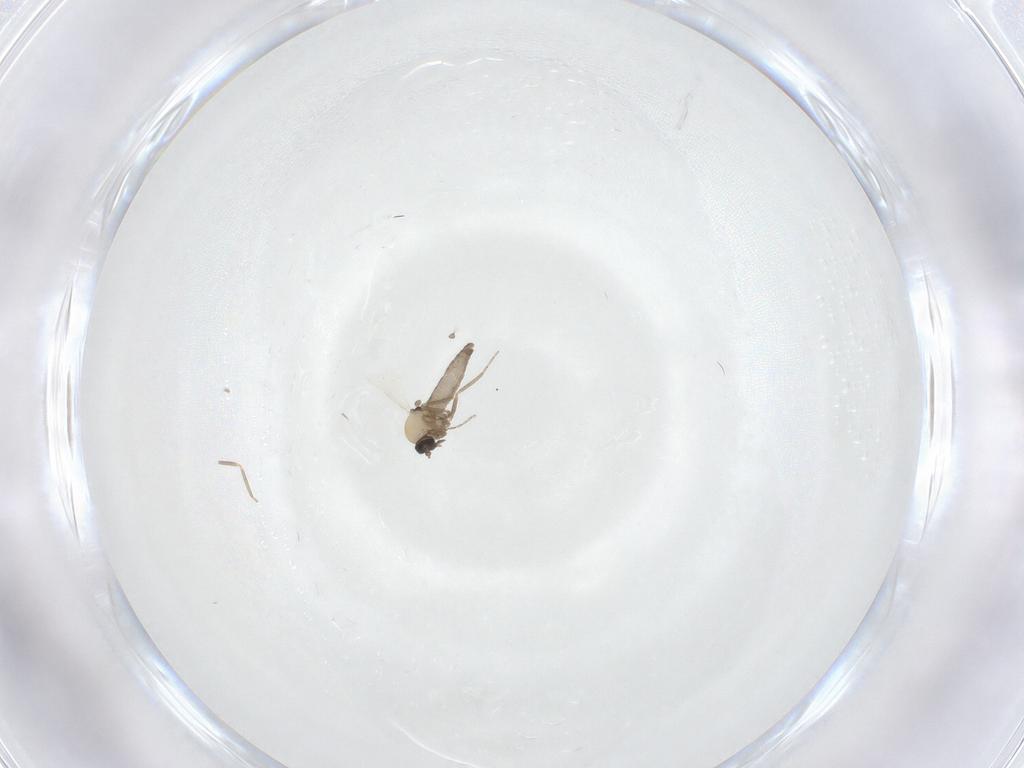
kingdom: Animalia
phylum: Arthropoda
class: Insecta
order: Diptera
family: Ceratopogonidae
